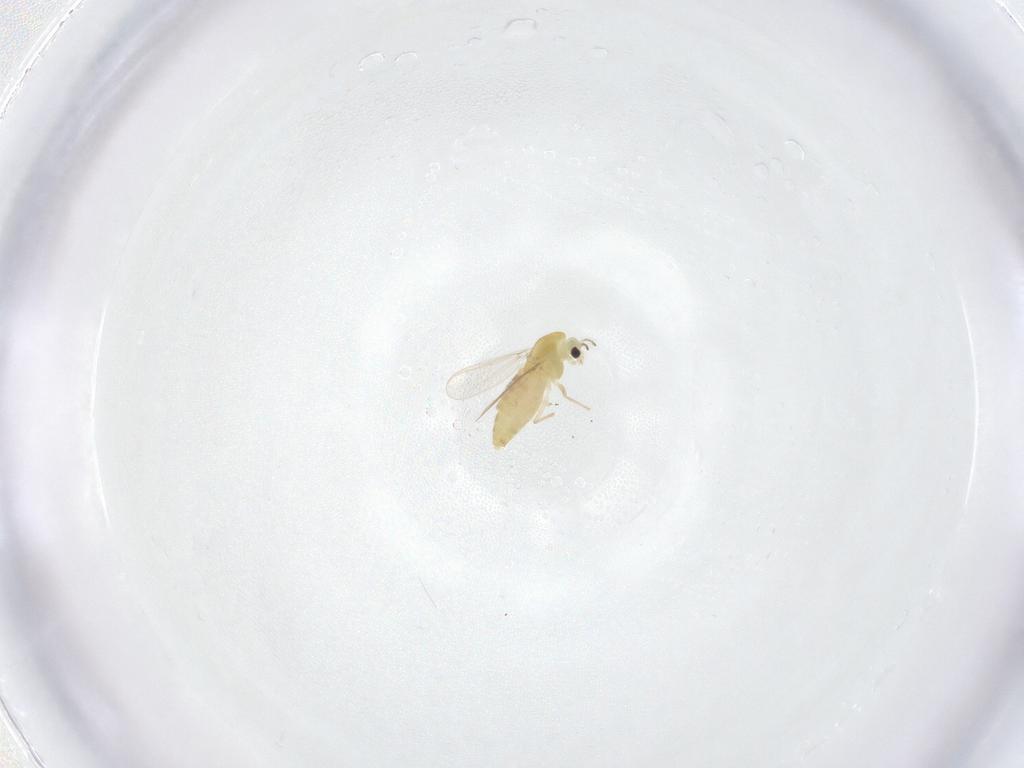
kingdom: Animalia
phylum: Arthropoda
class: Insecta
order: Diptera
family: Chironomidae
